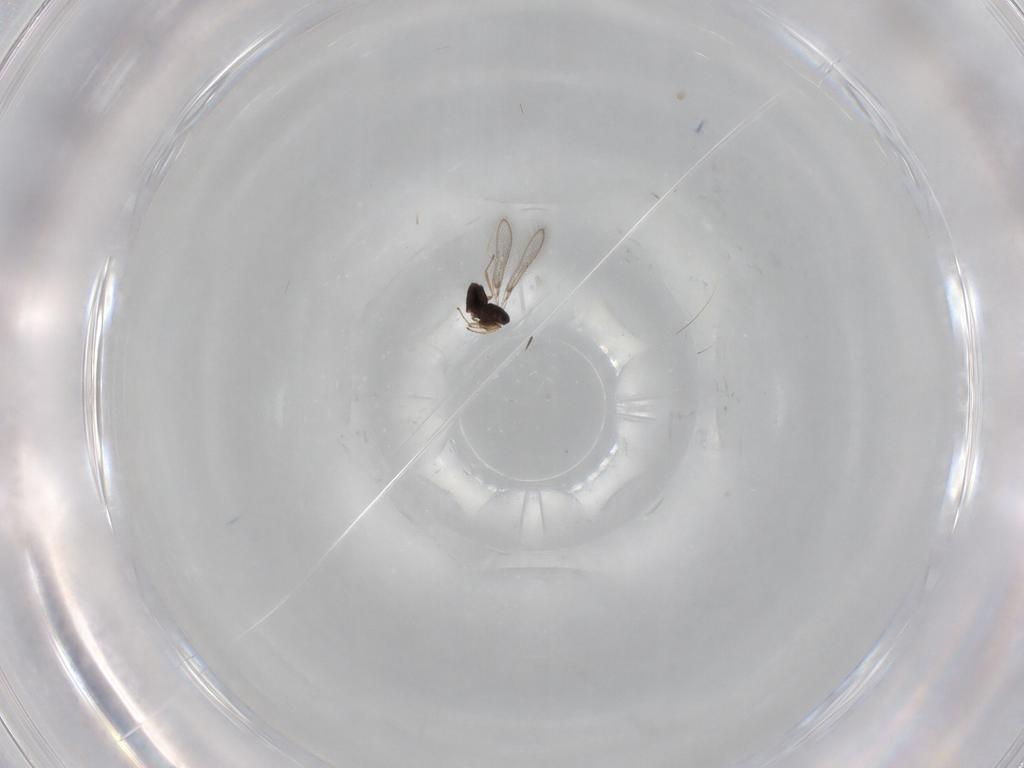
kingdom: Animalia
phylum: Arthropoda
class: Insecta
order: Hymenoptera
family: Mymaridae
